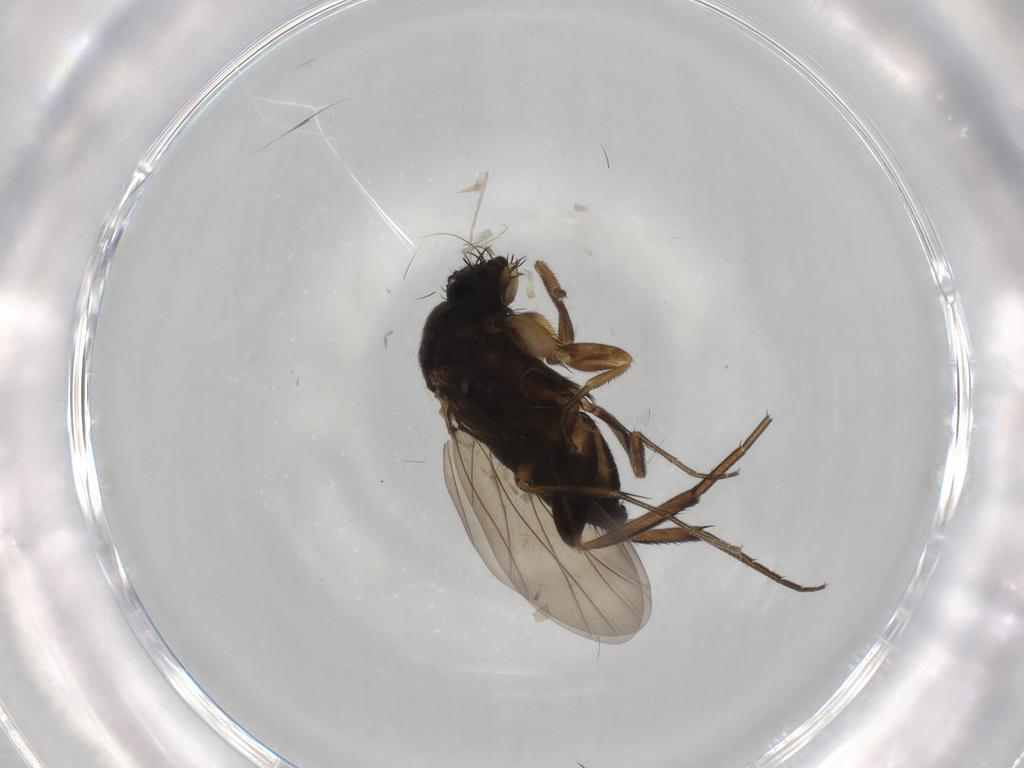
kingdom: Animalia
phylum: Arthropoda
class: Insecta
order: Diptera
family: Phoridae
